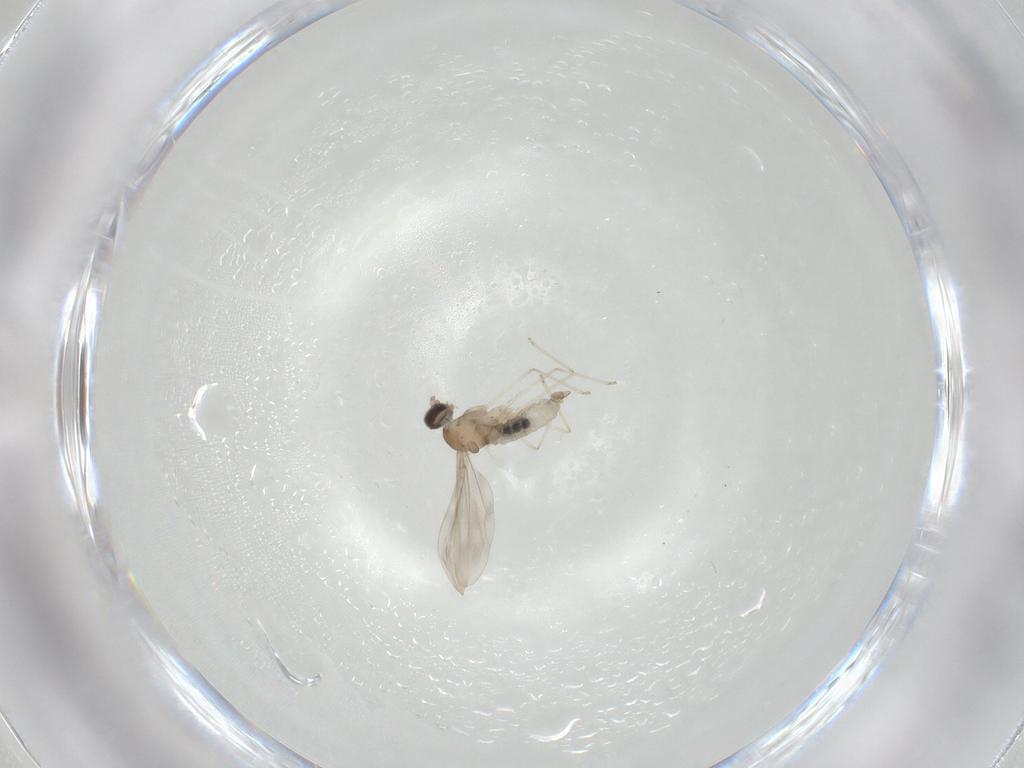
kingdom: Animalia
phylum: Arthropoda
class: Insecta
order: Diptera
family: Cecidomyiidae
